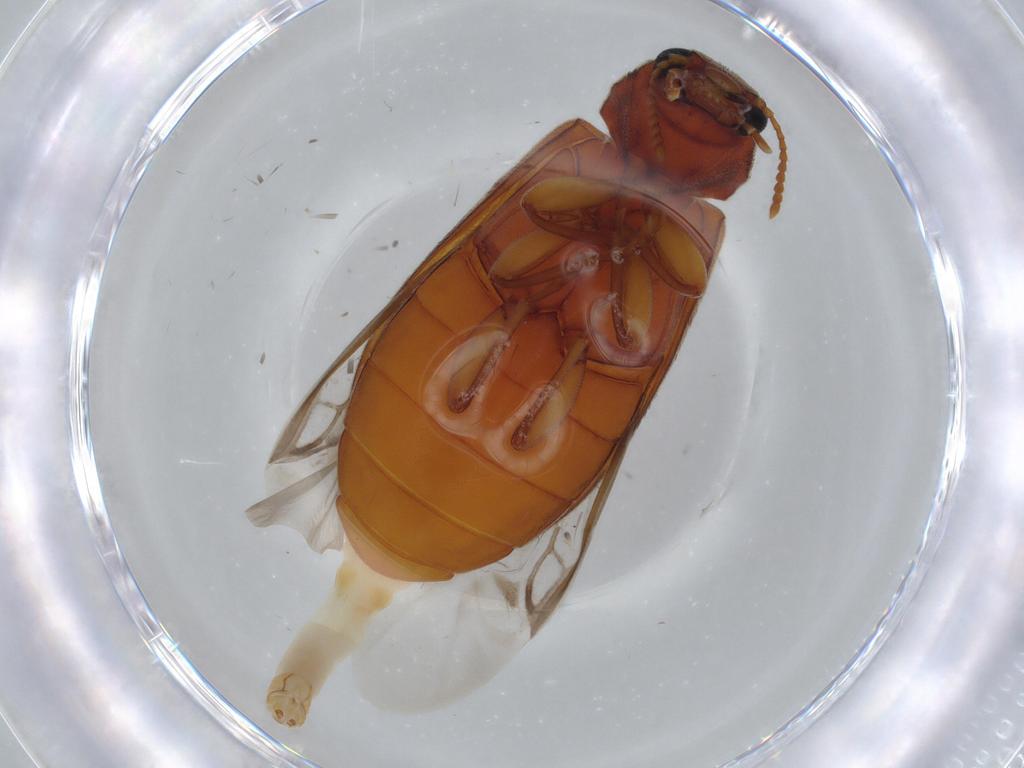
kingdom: Animalia
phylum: Arthropoda
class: Insecta
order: Coleoptera
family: Mycteridae
